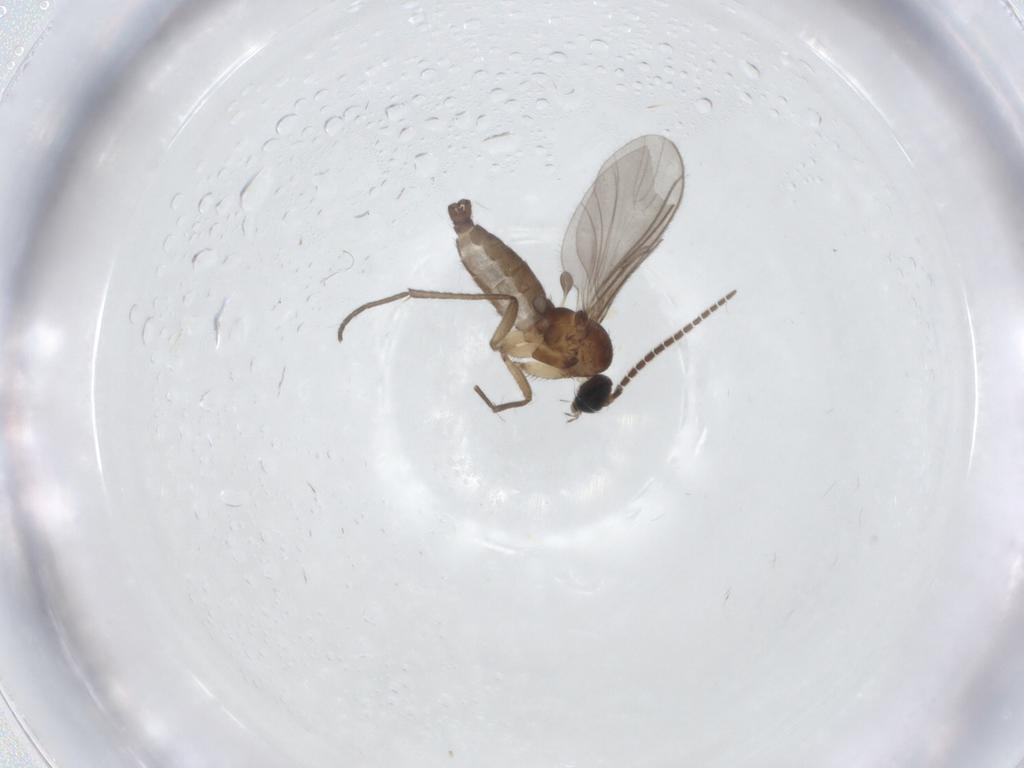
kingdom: Animalia
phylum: Arthropoda
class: Insecta
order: Diptera
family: Sciaridae
